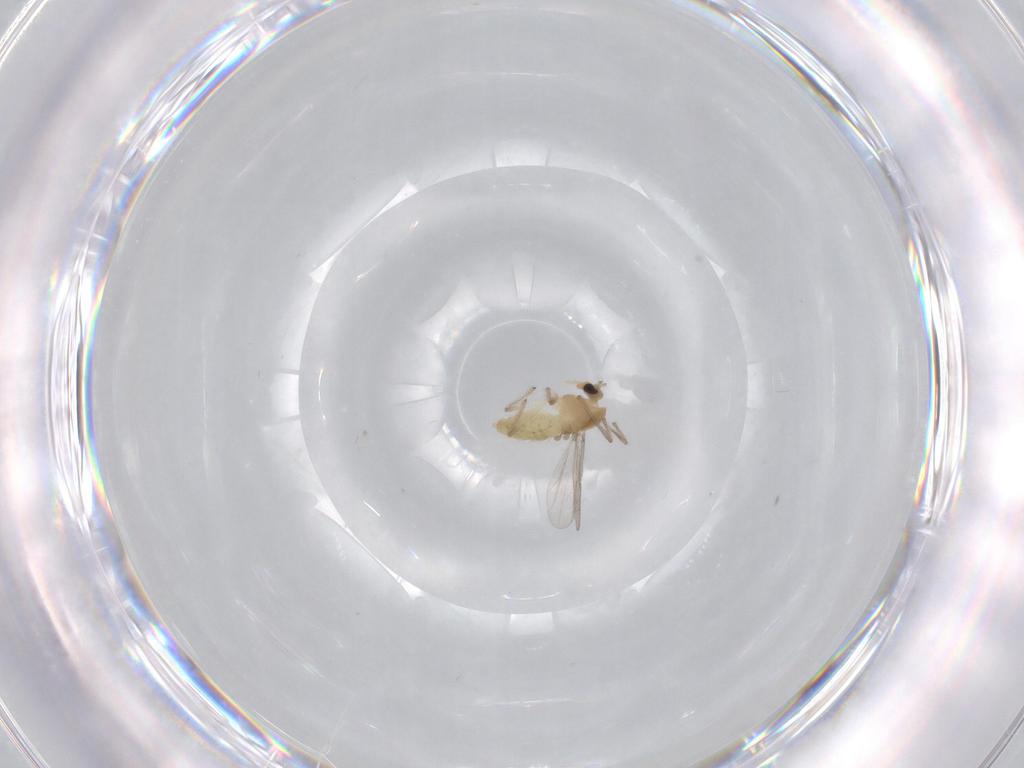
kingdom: Animalia
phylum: Arthropoda
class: Insecta
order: Diptera
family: Chironomidae
